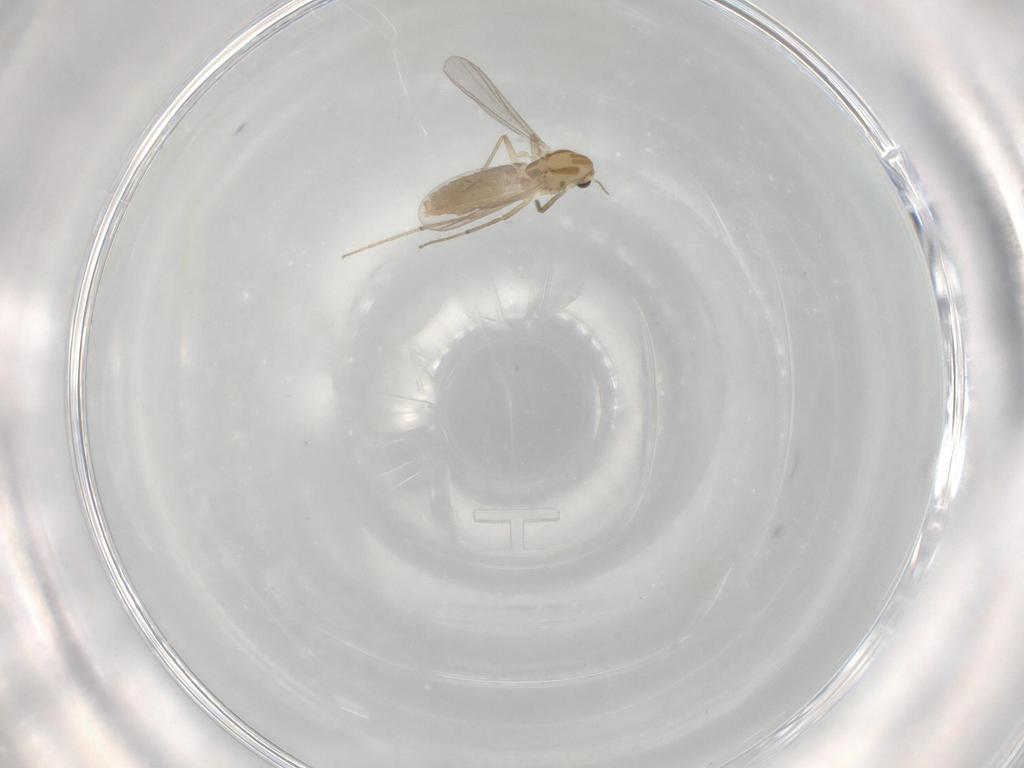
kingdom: Animalia
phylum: Arthropoda
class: Insecta
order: Diptera
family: Chironomidae
